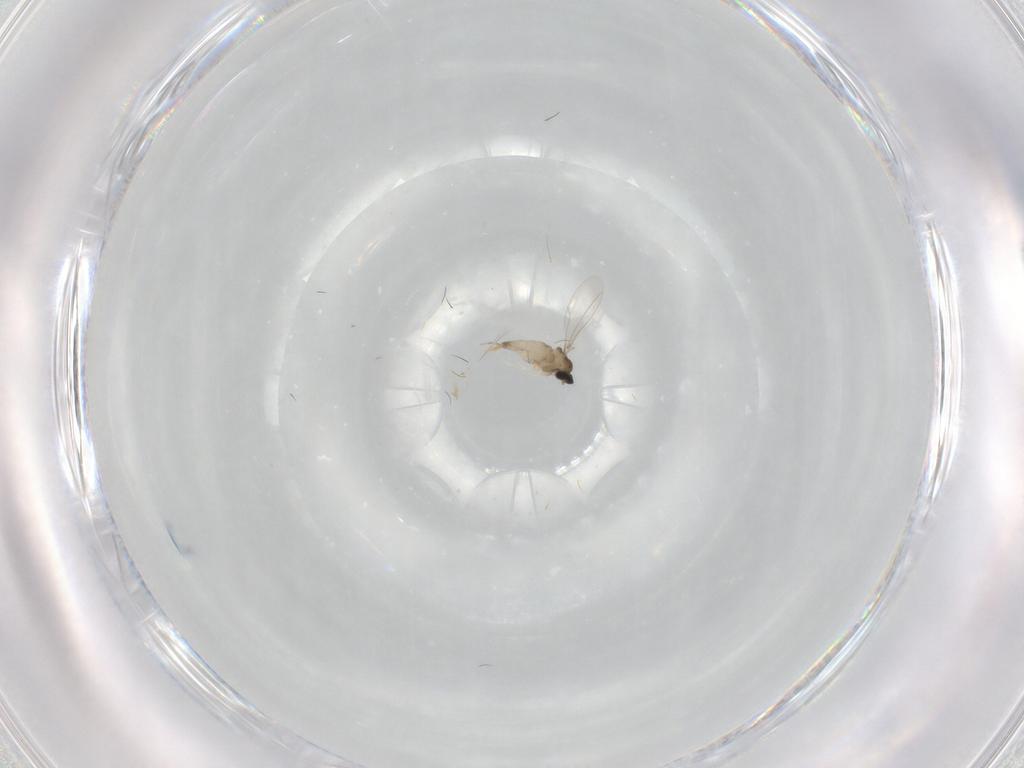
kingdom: Animalia
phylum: Arthropoda
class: Insecta
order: Diptera
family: Cecidomyiidae
